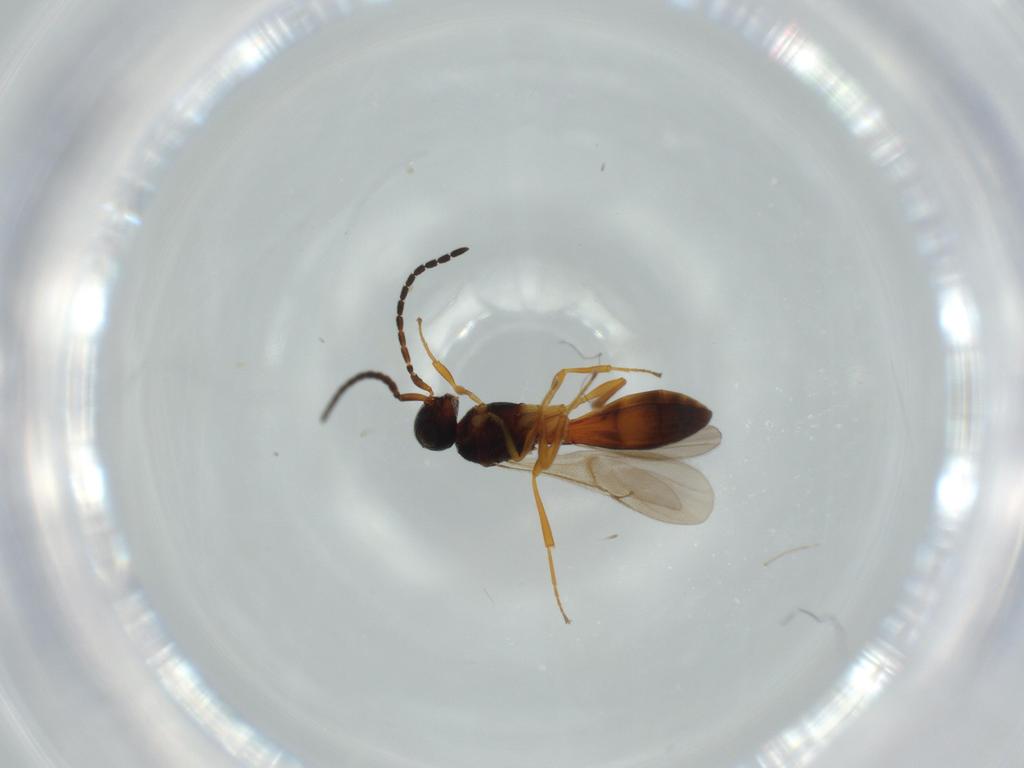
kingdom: Animalia
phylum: Arthropoda
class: Insecta
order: Hymenoptera
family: Scelionidae
